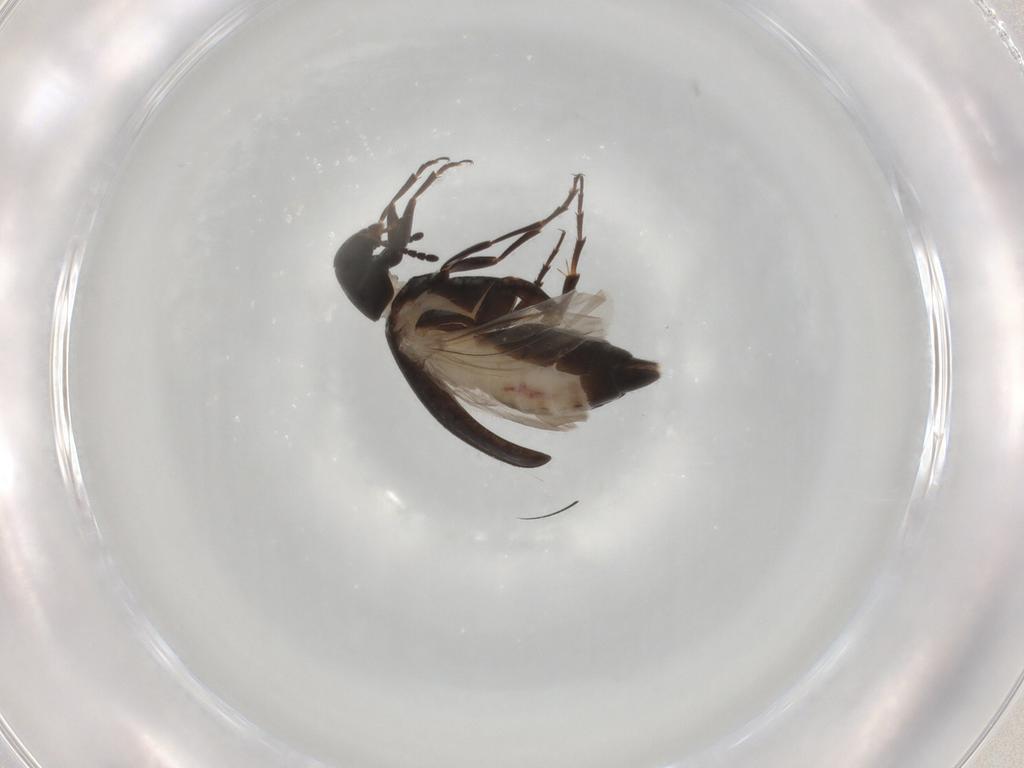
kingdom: Animalia
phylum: Arthropoda
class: Insecta
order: Coleoptera
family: Scraptiidae
